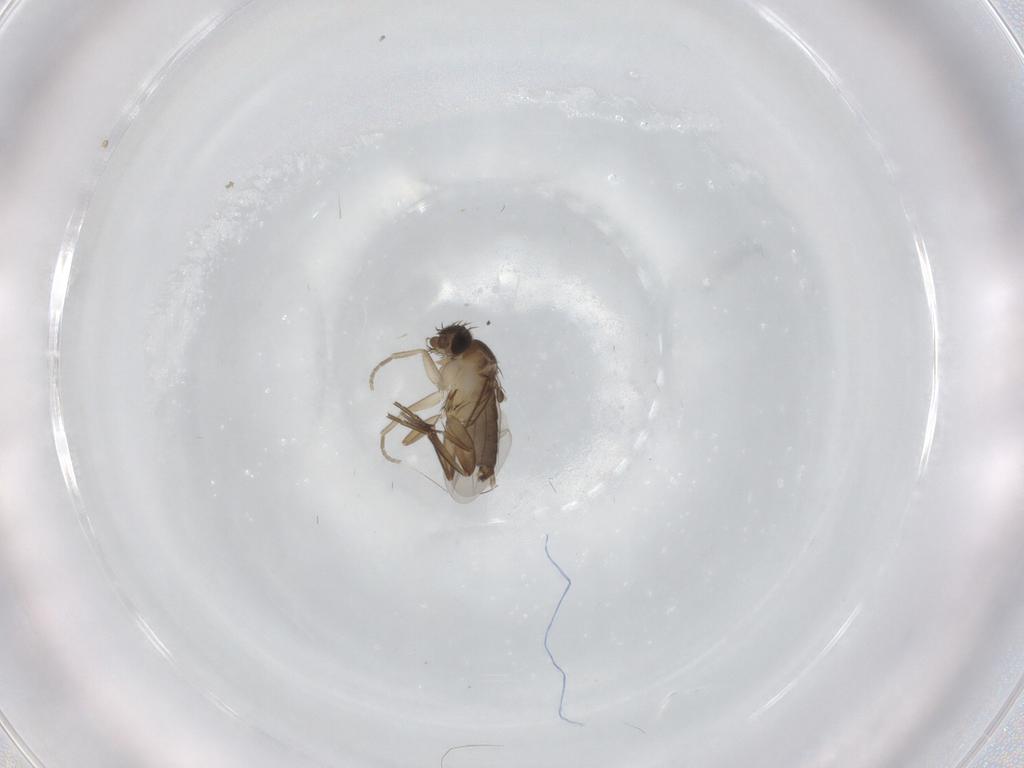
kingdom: Animalia
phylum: Arthropoda
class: Insecta
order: Diptera
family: Phoridae
